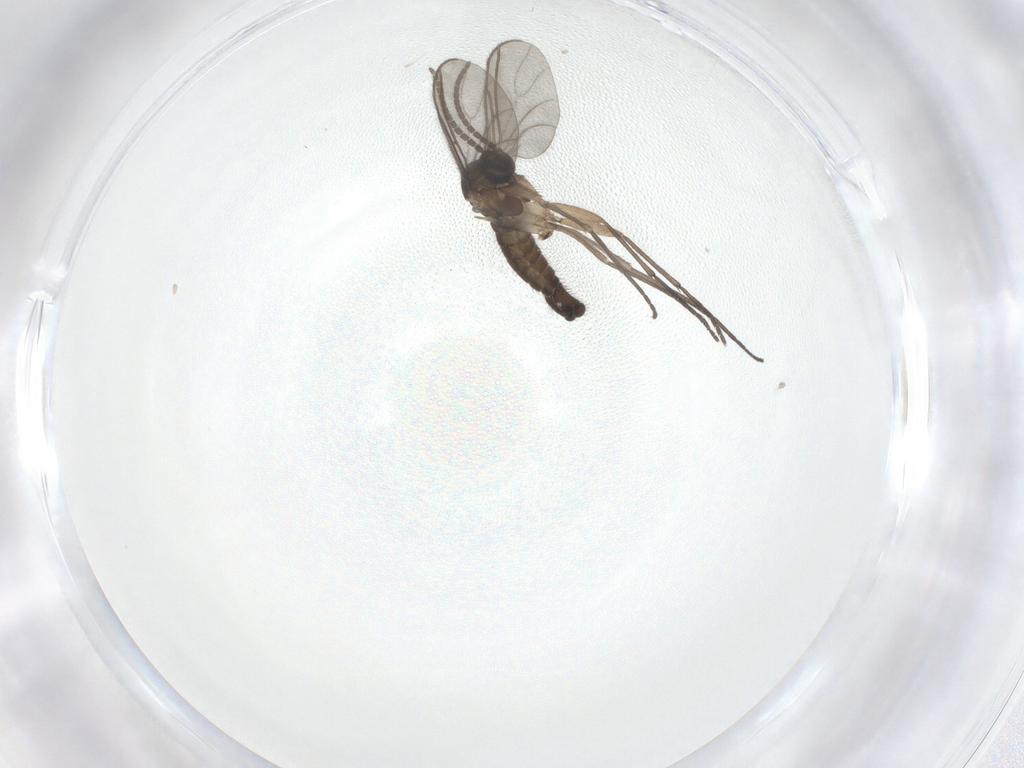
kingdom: Animalia
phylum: Arthropoda
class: Insecta
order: Diptera
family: Sciaridae
